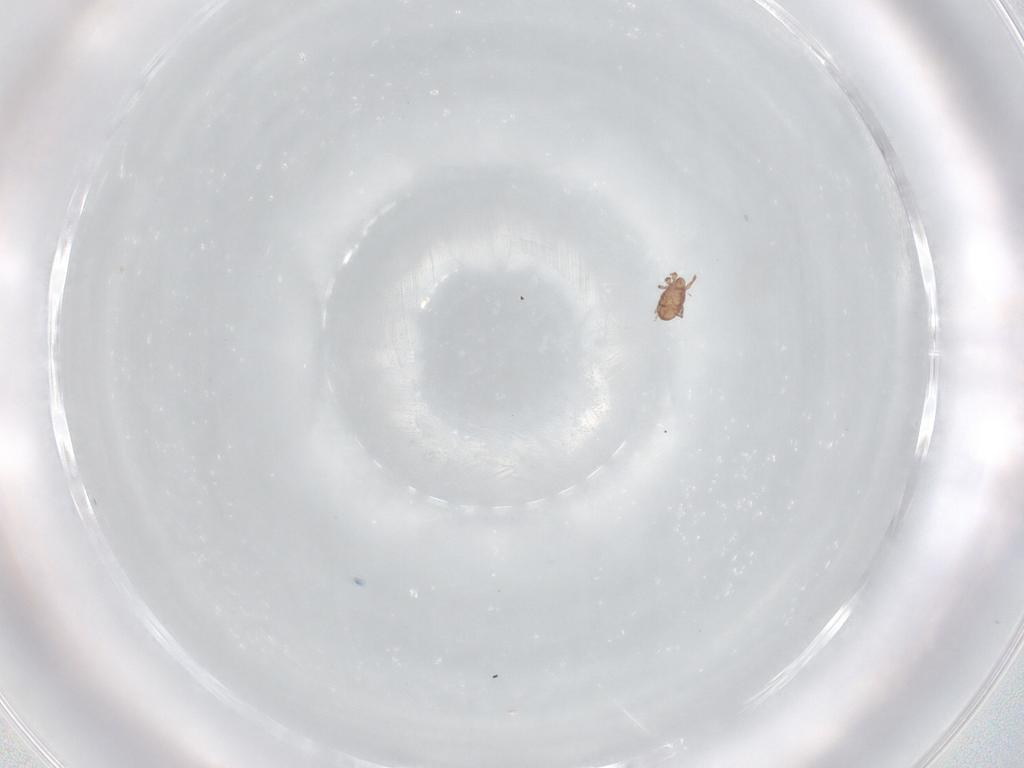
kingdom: Animalia
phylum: Arthropoda
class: Arachnida
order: Sarcoptiformes
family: Eremaeidae
